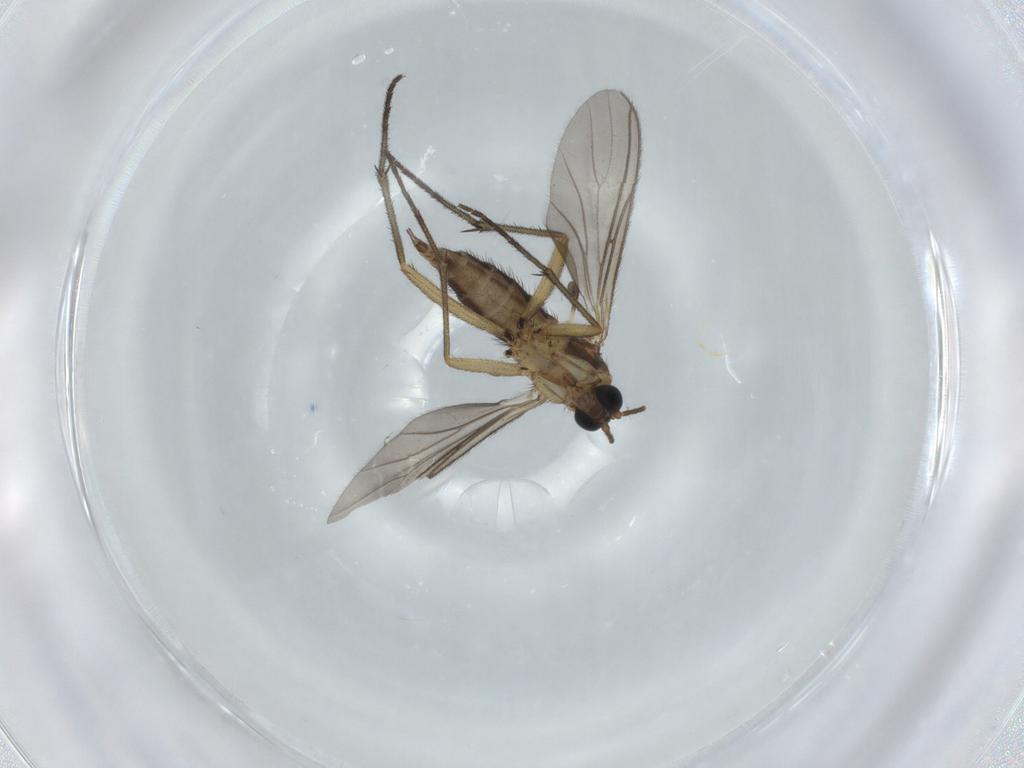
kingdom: Animalia
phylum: Arthropoda
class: Insecta
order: Diptera
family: Sciaridae
